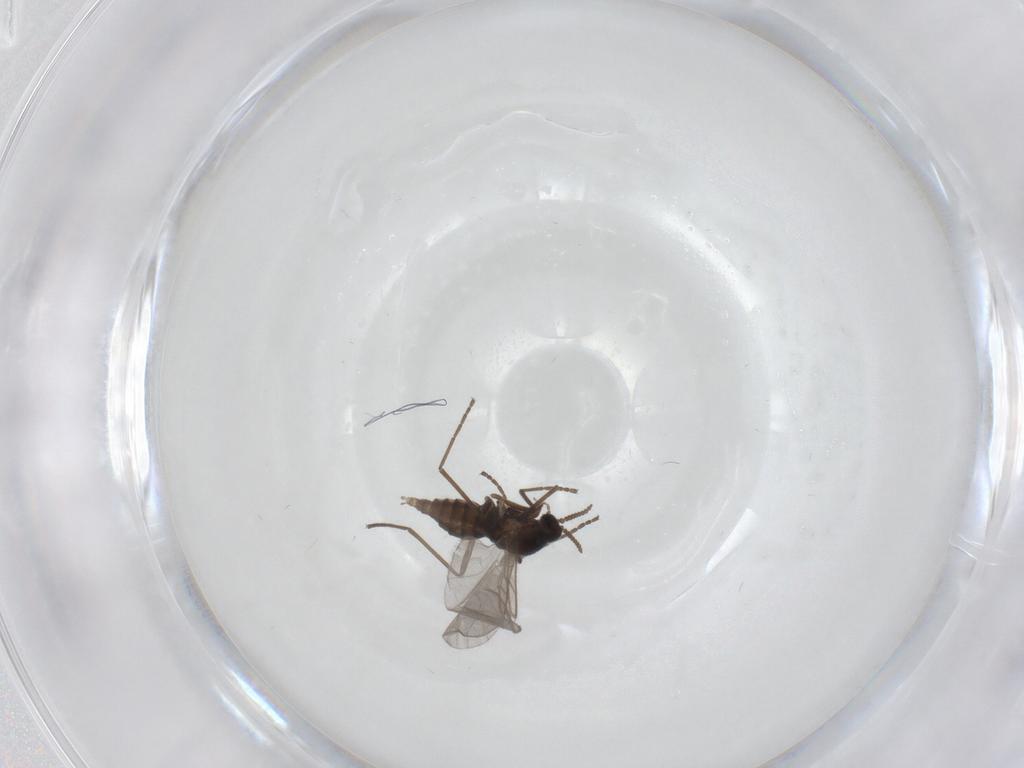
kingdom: Animalia
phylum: Arthropoda
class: Insecta
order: Diptera
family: Cecidomyiidae
